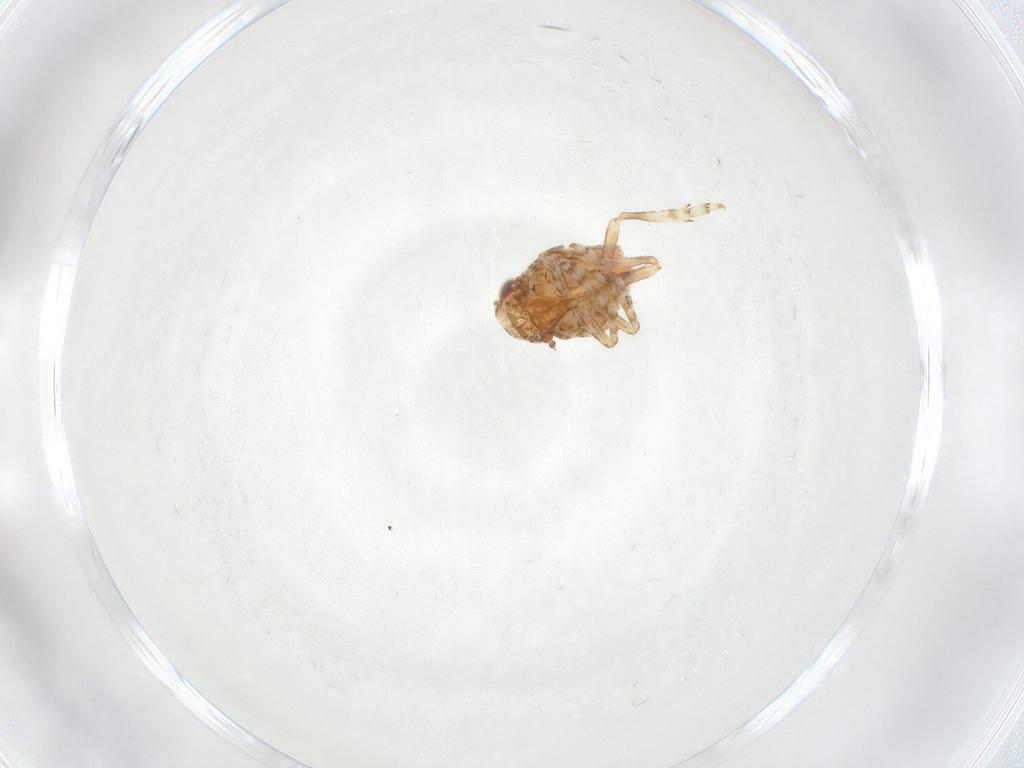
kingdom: Animalia
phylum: Arthropoda
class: Insecta
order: Hemiptera
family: Nogodinidae
